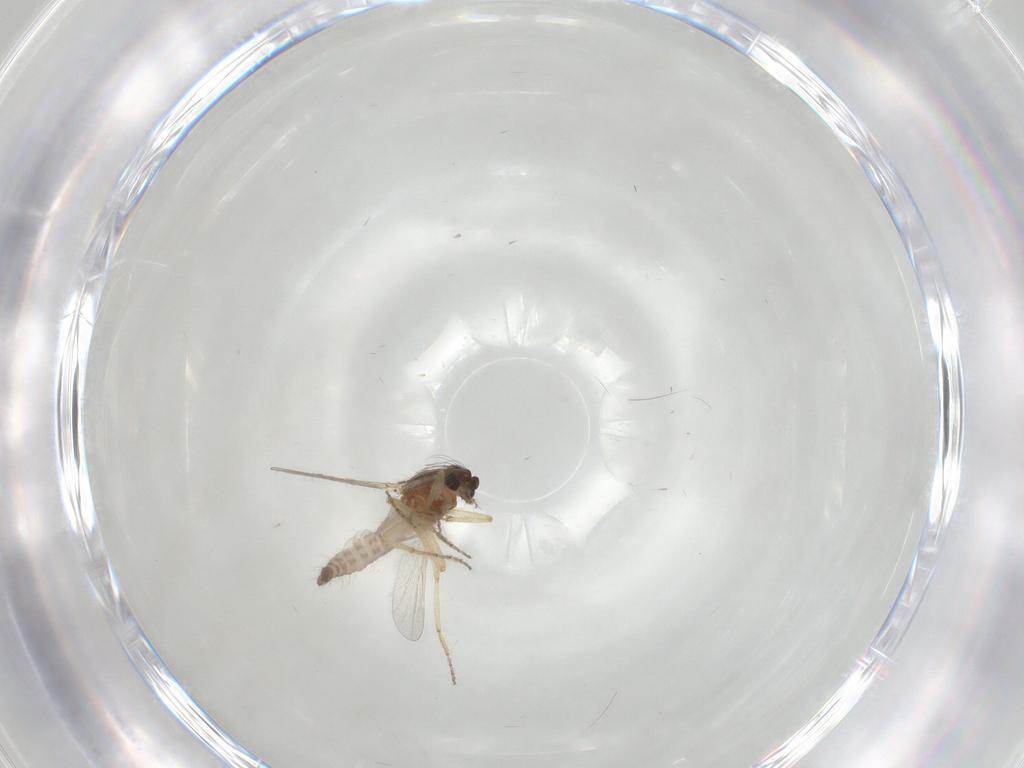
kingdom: Animalia
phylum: Arthropoda
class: Insecta
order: Diptera
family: Ceratopogonidae
